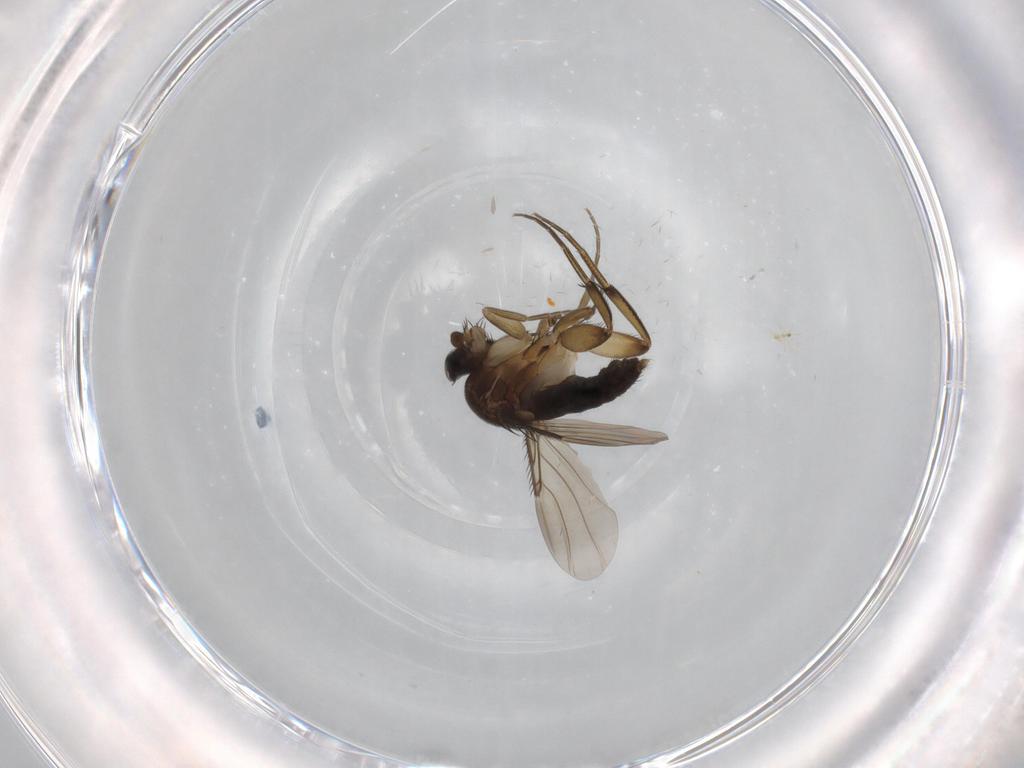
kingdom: Animalia
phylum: Arthropoda
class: Insecta
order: Diptera
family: Phoridae
